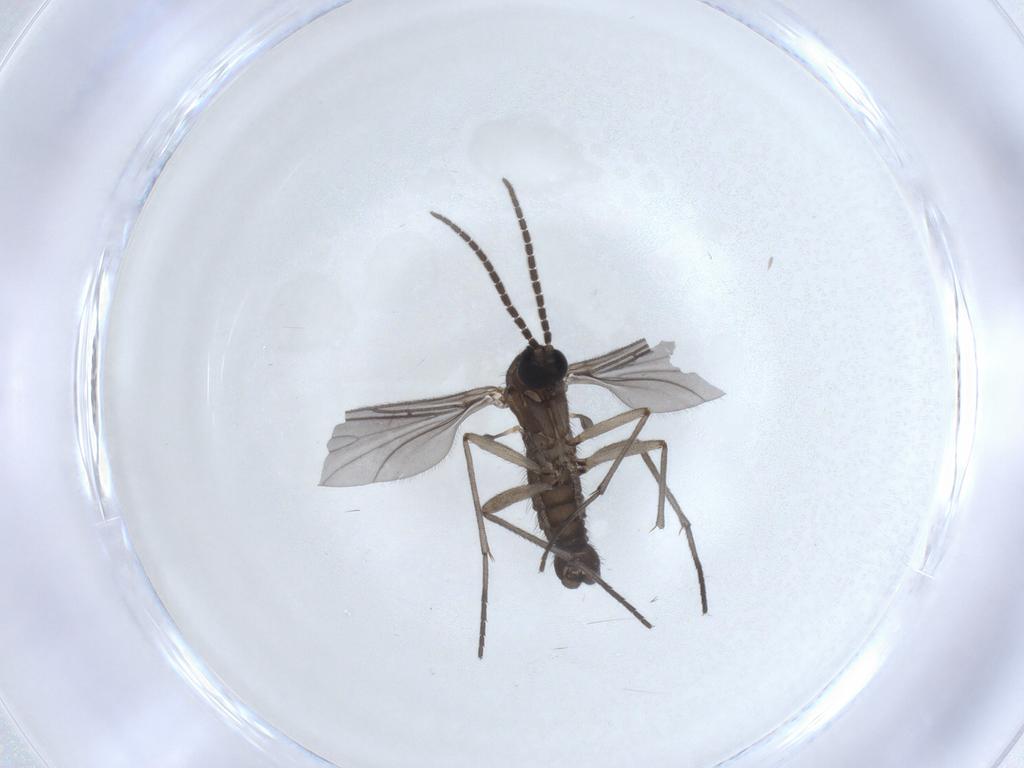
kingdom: Animalia
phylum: Arthropoda
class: Insecta
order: Diptera
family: Sciaridae
